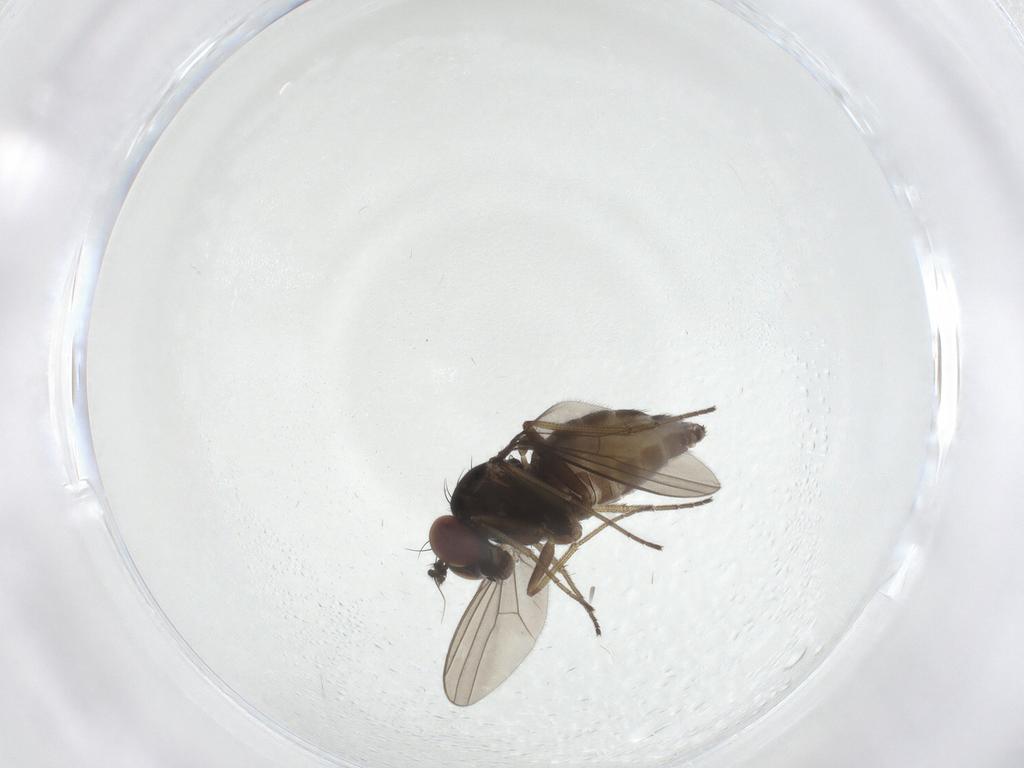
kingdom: Animalia
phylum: Arthropoda
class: Insecta
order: Diptera
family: Dolichopodidae
